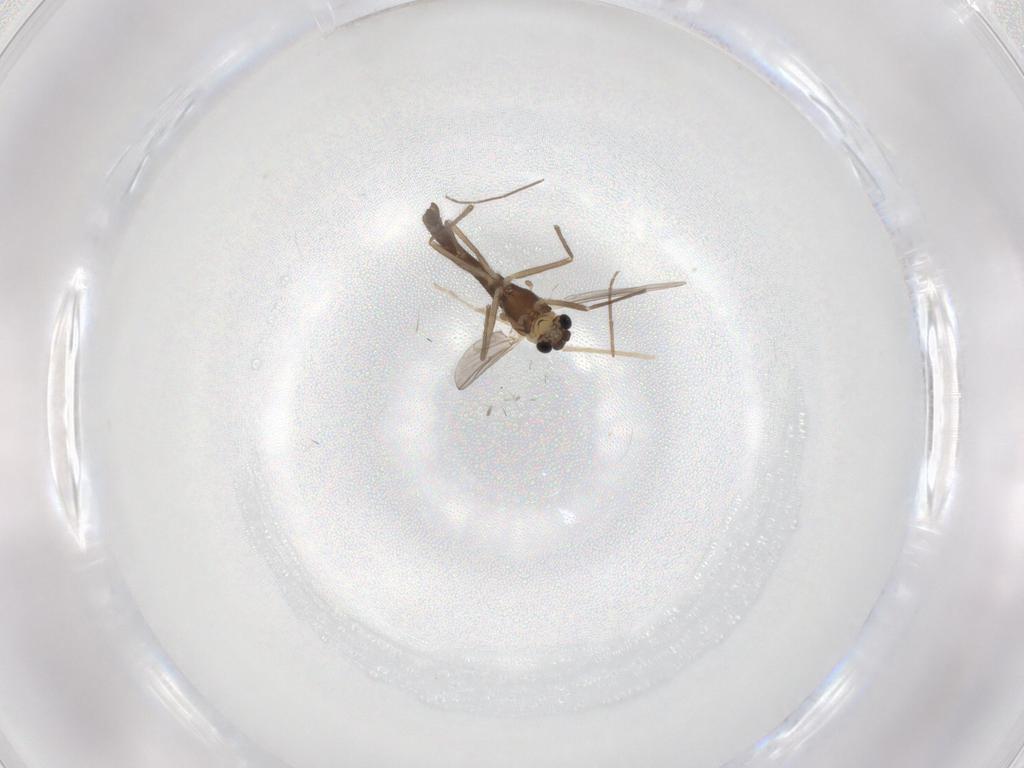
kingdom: Animalia
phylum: Arthropoda
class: Insecta
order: Diptera
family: Chironomidae
